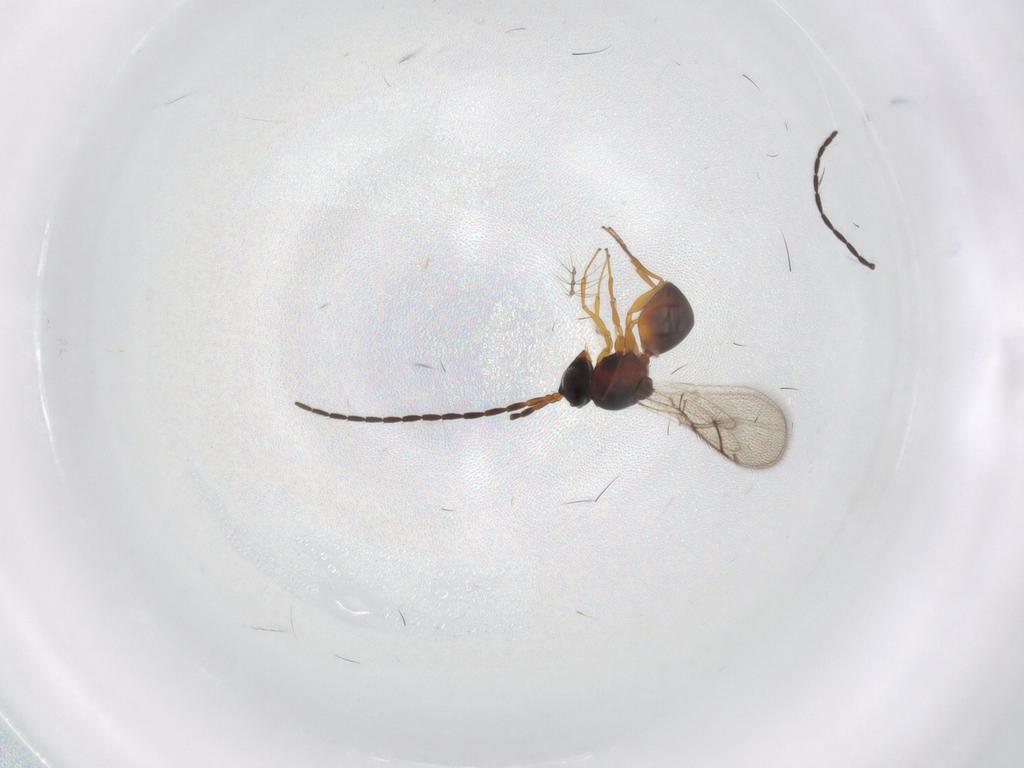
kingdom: Animalia
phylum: Arthropoda
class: Insecta
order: Hymenoptera
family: Figitidae
